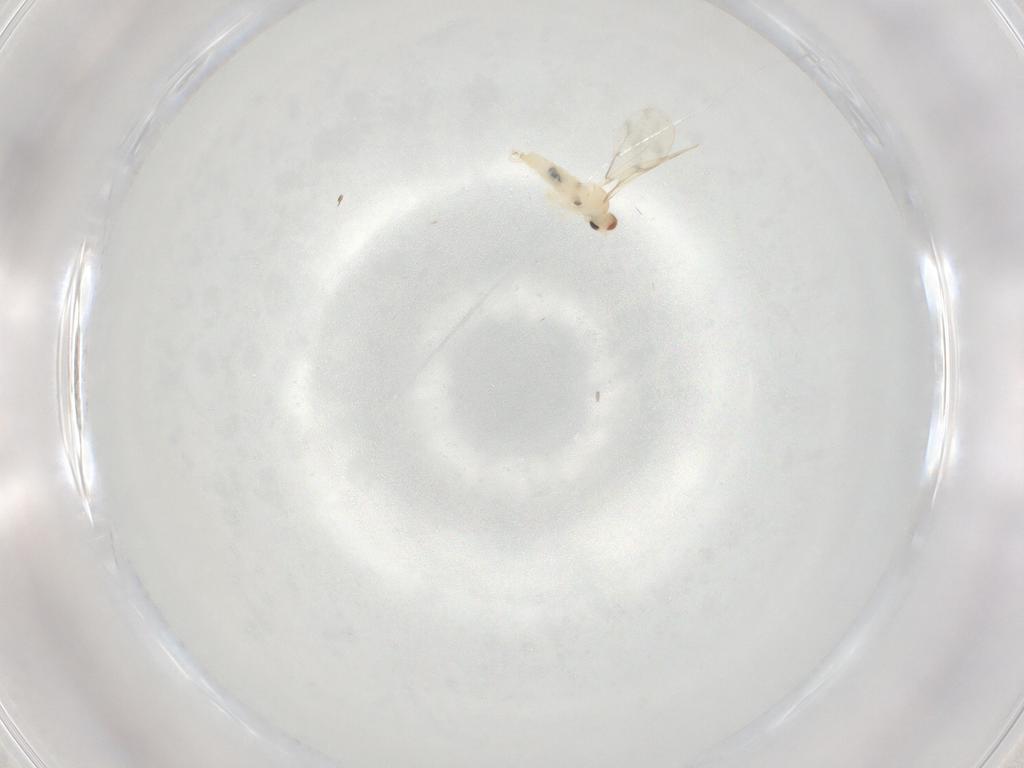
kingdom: Animalia
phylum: Arthropoda
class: Insecta
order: Diptera
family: Cecidomyiidae
